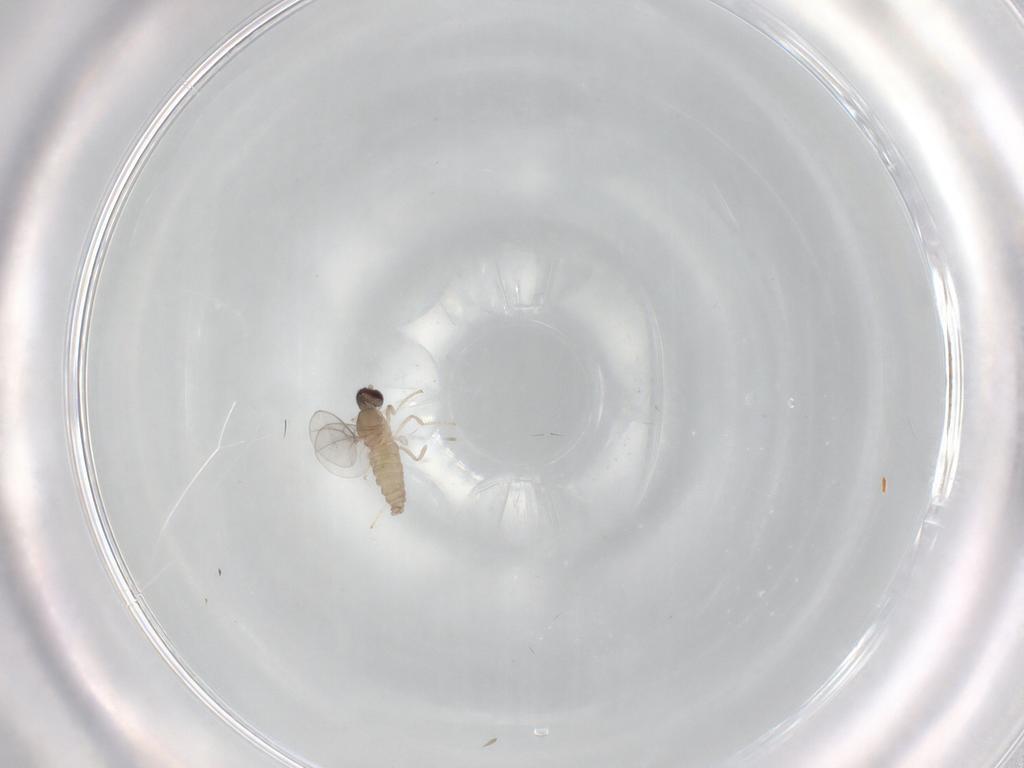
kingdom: Animalia
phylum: Arthropoda
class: Insecta
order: Diptera
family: Cecidomyiidae
